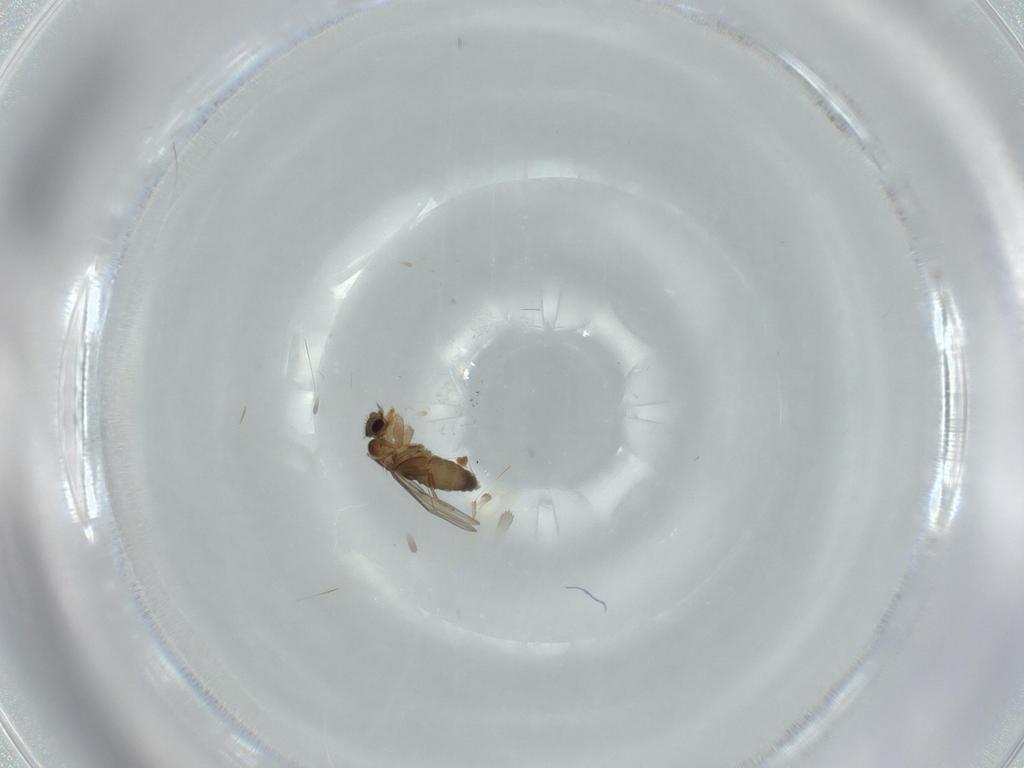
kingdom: Animalia
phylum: Arthropoda
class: Insecta
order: Diptera
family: Phoridae
